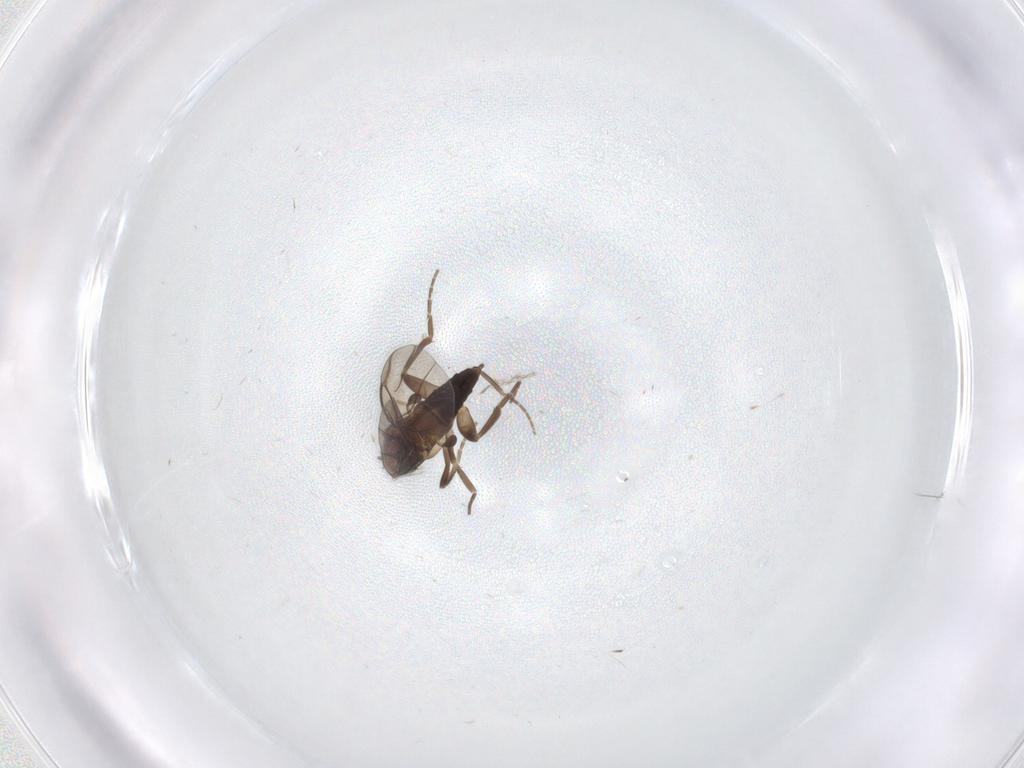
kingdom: Animalia
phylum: Arthropoda
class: Insecta
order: Diptera
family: Phoridae
